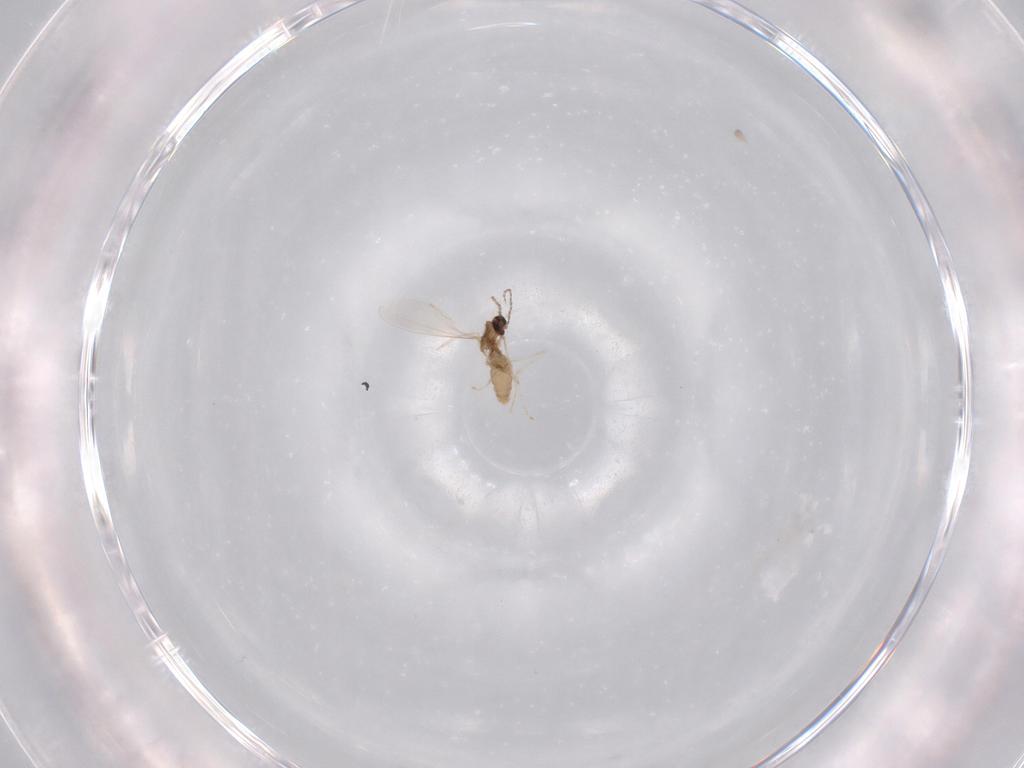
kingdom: Animalia
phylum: Arthropoda
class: Insecta
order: Diptera
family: Cecidomyiidae
